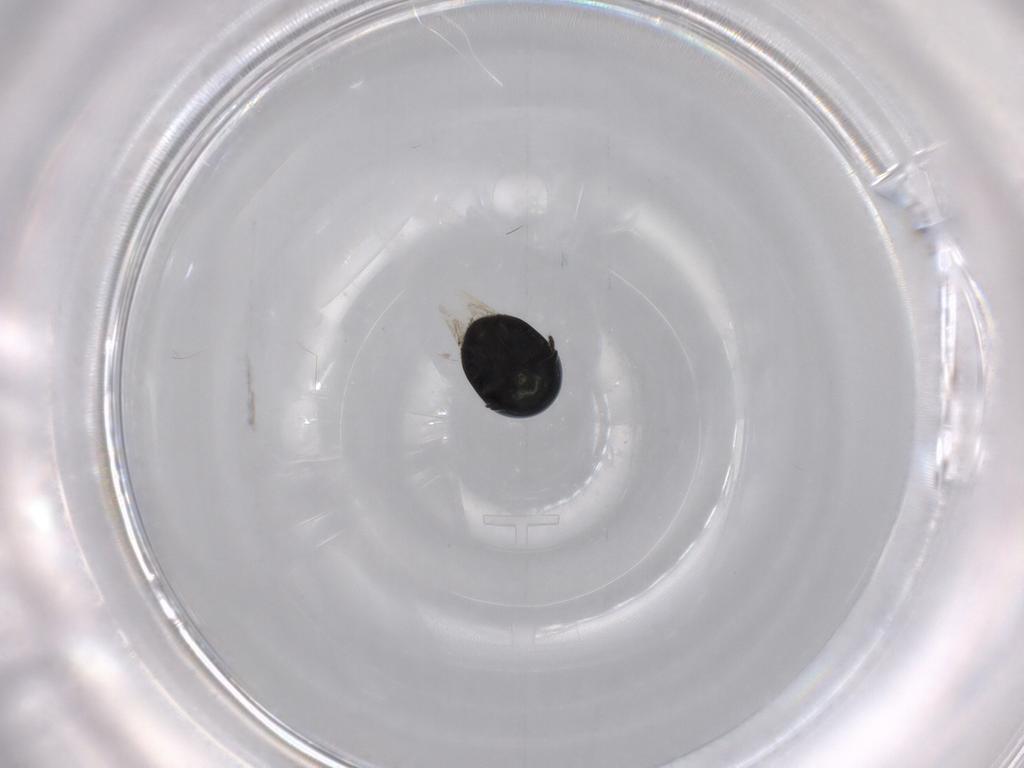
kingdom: Animalia
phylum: Arthropoda
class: Insecta
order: Coleoptera
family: Cybocephalidae
